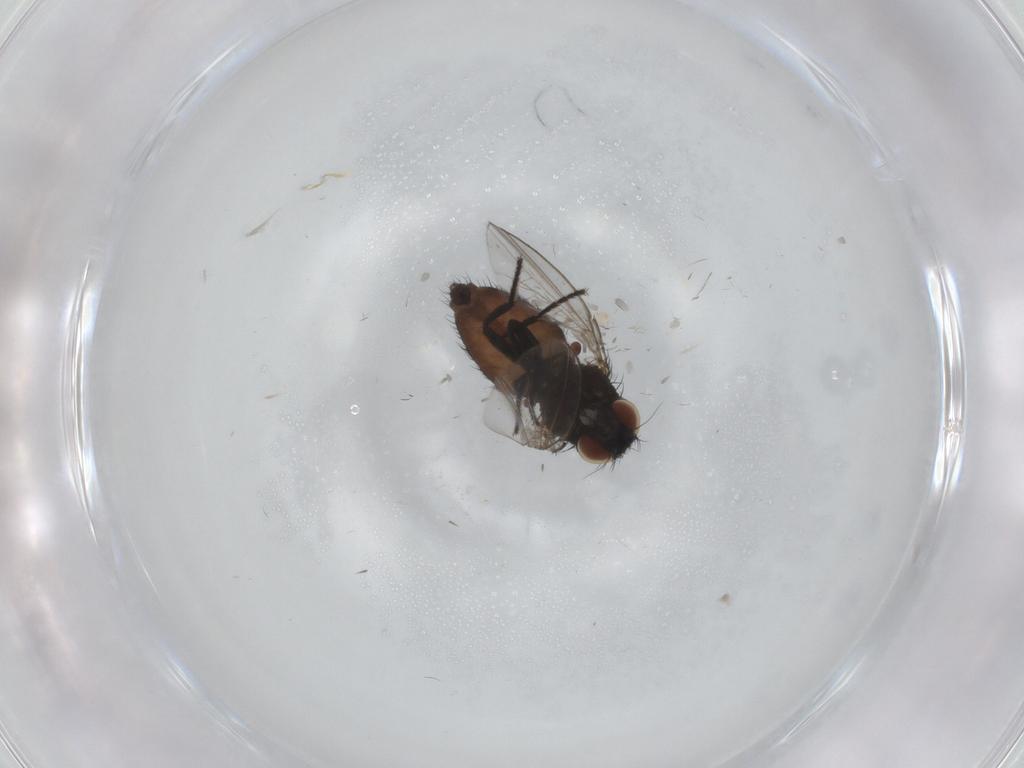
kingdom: Animalia
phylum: Arthropoda
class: Insecta
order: Diptera
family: Milichiidae
